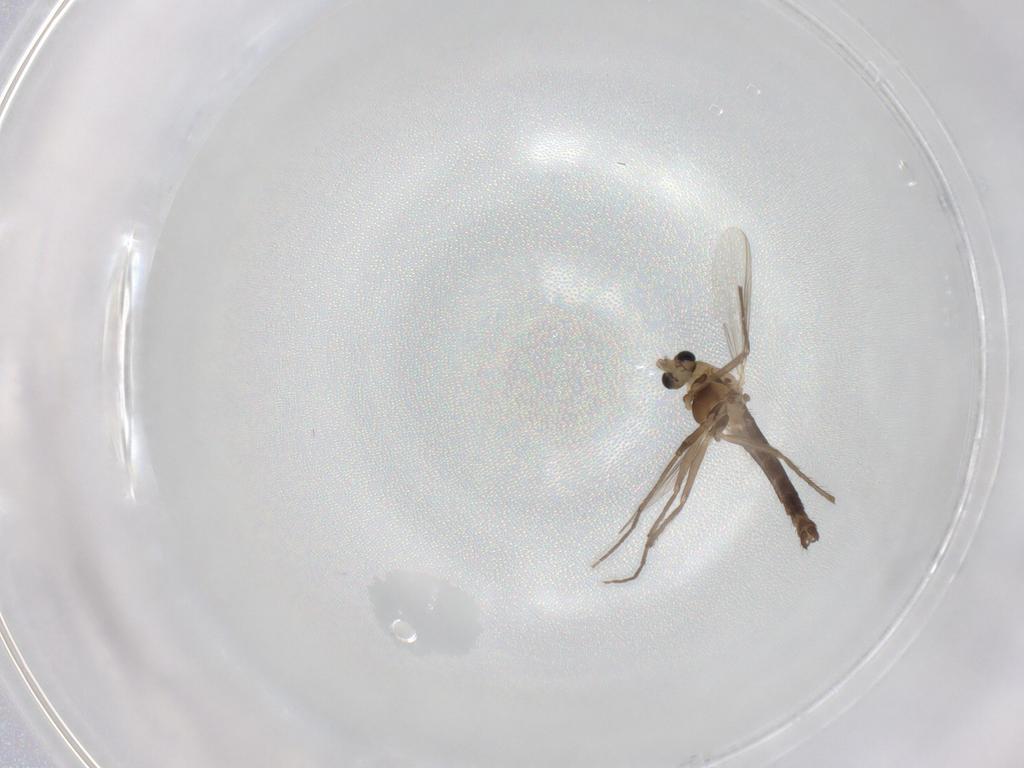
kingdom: Animalia
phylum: Arthropoda
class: Insecta
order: Diptera
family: Chironomidae
